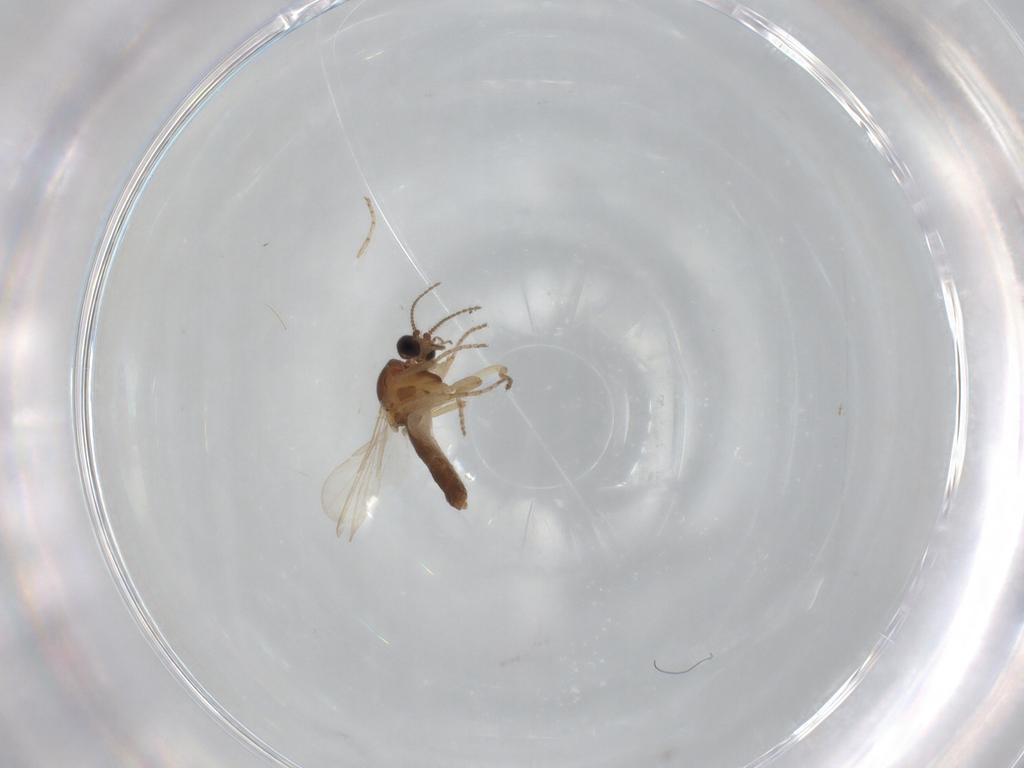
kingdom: Animalia
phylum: Arthropoda
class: Insecta
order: Diptera
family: Ceratopogonidae
